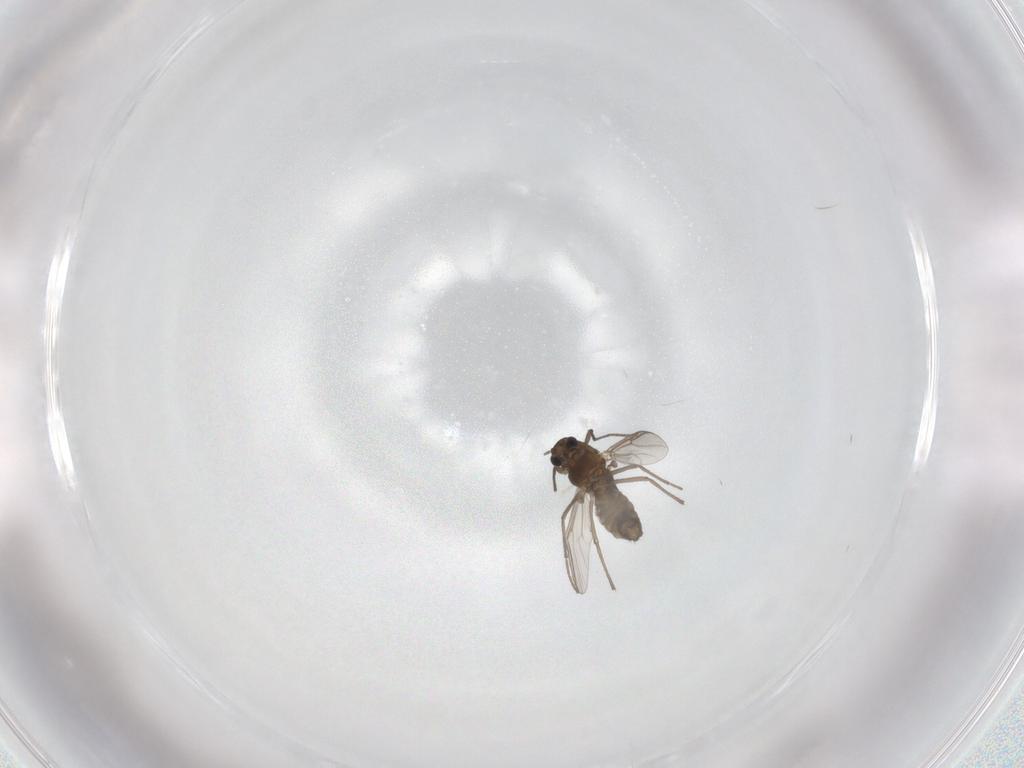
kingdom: Animalia
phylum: Arthropoda
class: Insecta
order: Diptera
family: Chironomidae
